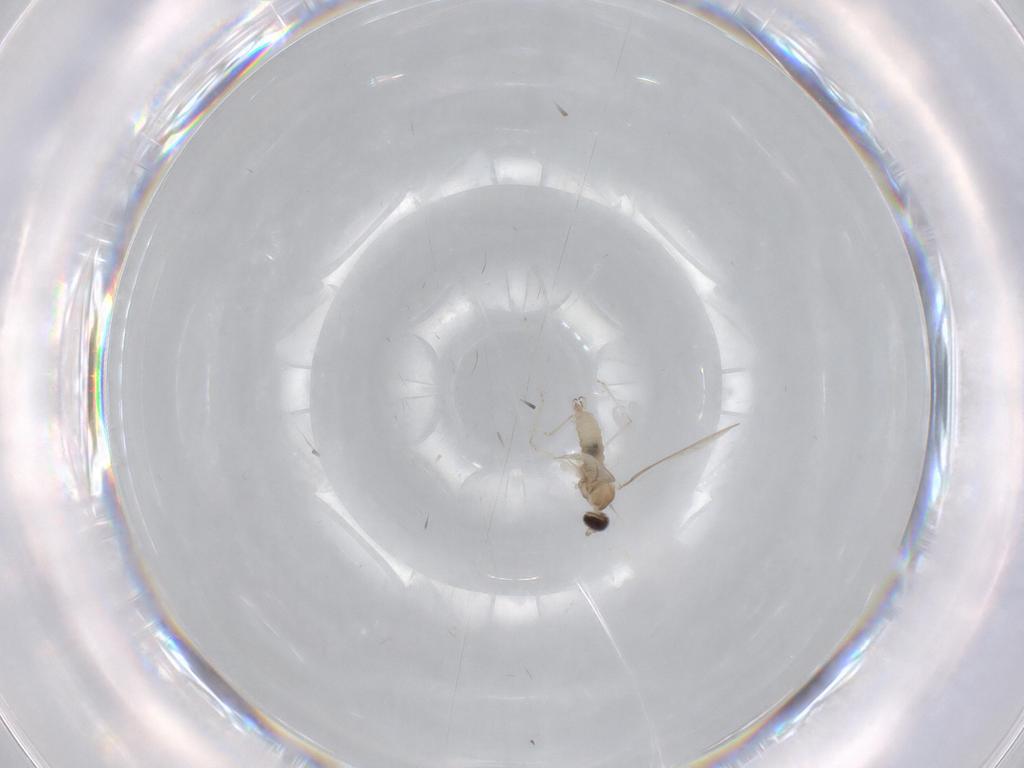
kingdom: Animalia
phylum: Arthropoda
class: Insecta
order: Diptera
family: Cecidomyiidae
